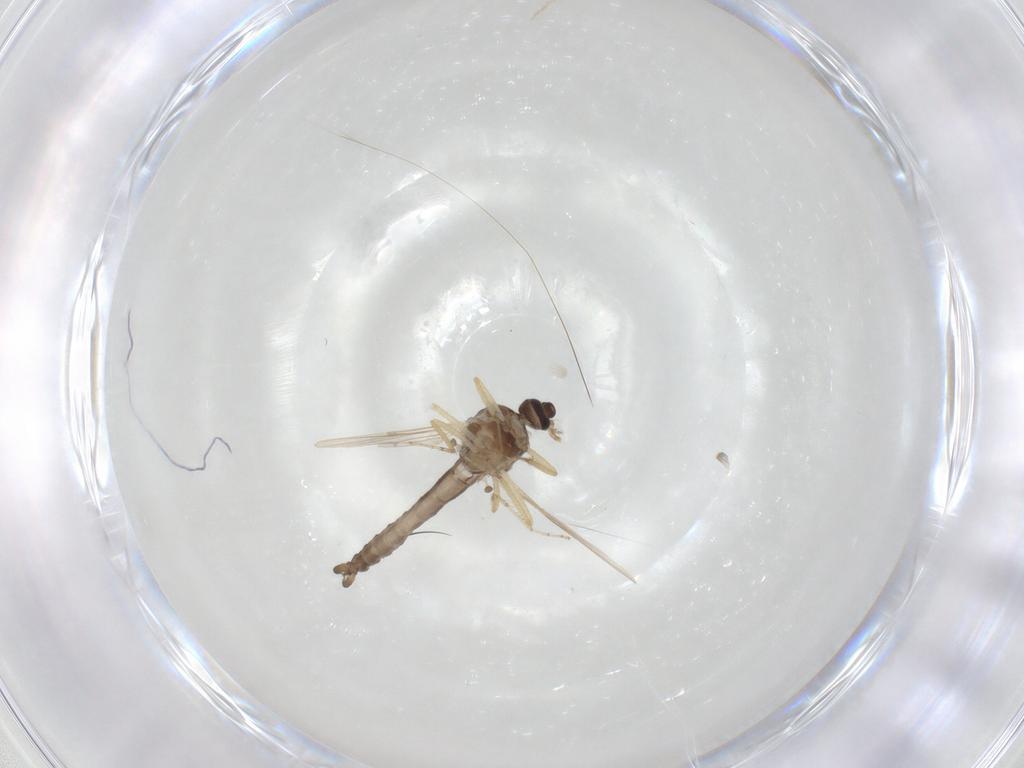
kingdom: Animalia
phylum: Arthropoda
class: Insecta
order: Diptera
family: Ceratopogonidae
